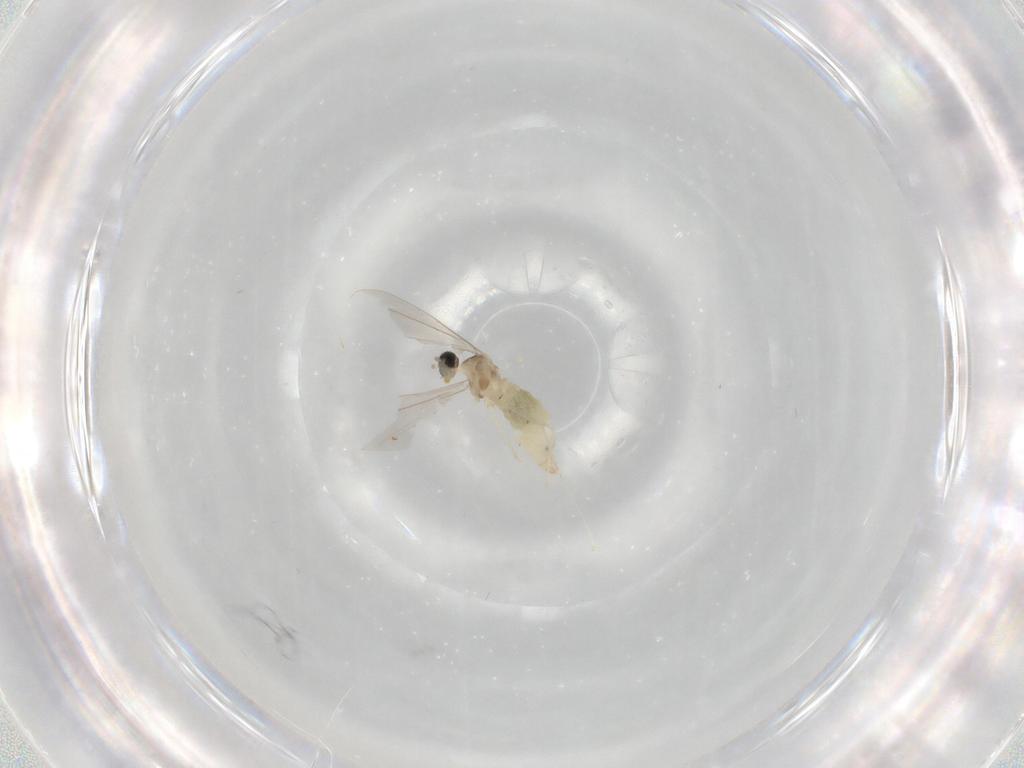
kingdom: Animalia
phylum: Arthropoda
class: Insecta
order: Diptera
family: Cecidomyiidae
